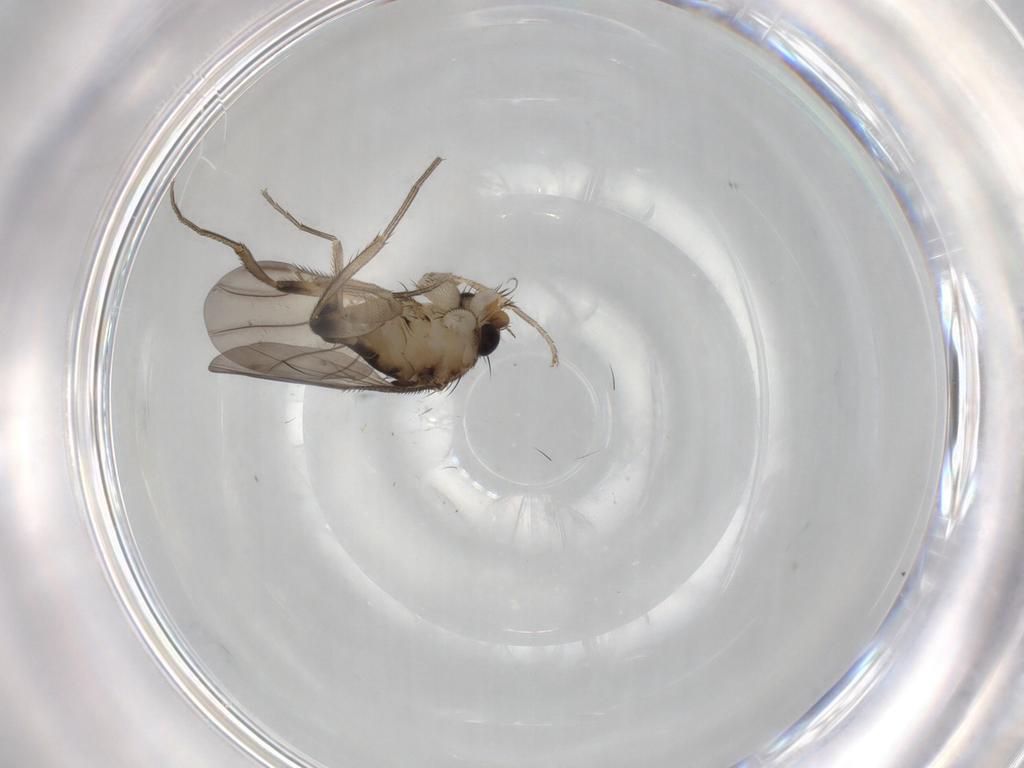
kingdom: Animalia
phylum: Arthropoda
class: Insecta
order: Diptera
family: Phoridae
